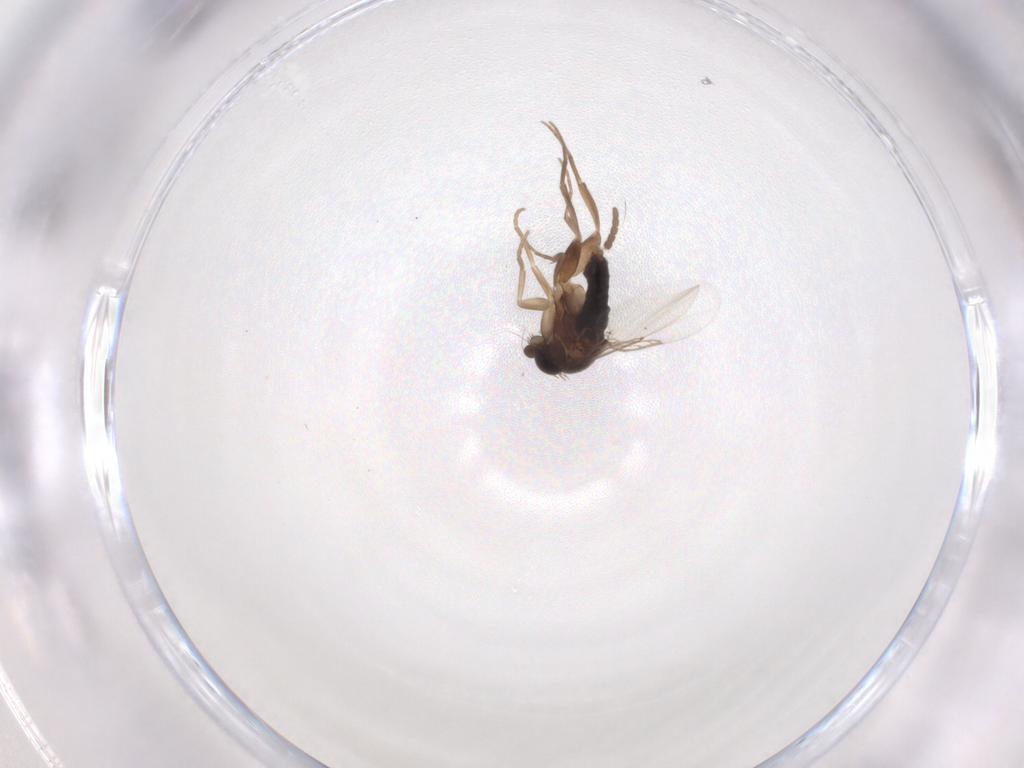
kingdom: Animalia
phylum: Arthropoda
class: Insecta
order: Diptera
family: Phoridae
